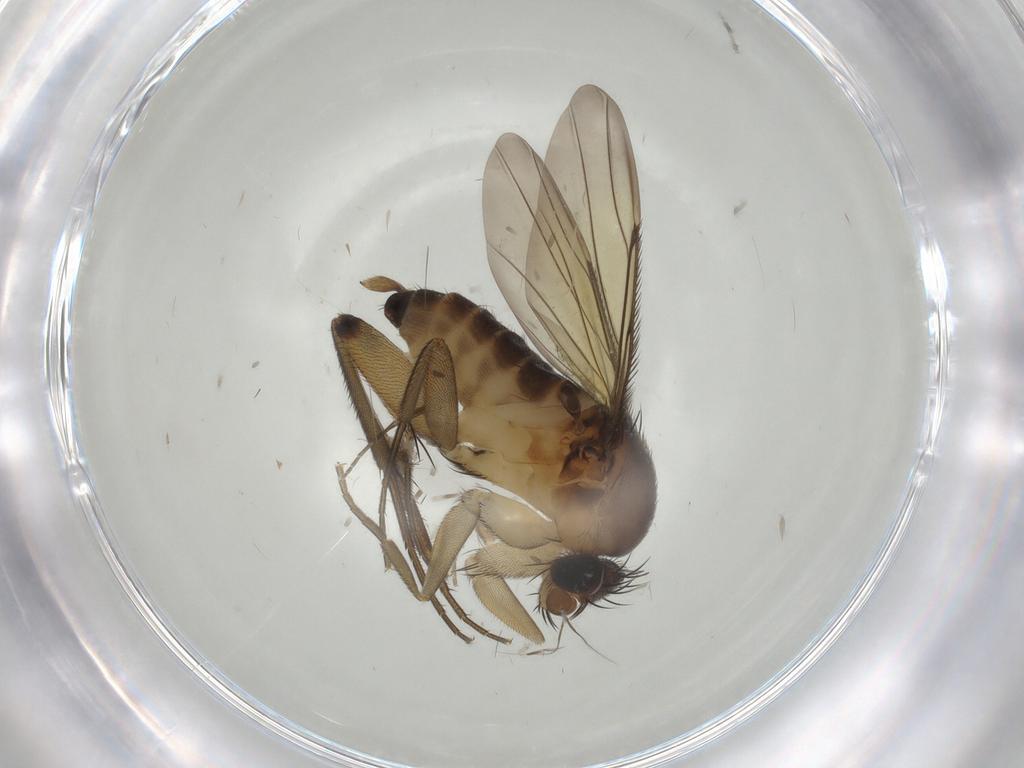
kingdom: Animalia
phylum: Arthropoda
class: Insecta
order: Diptera
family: Phoridae
